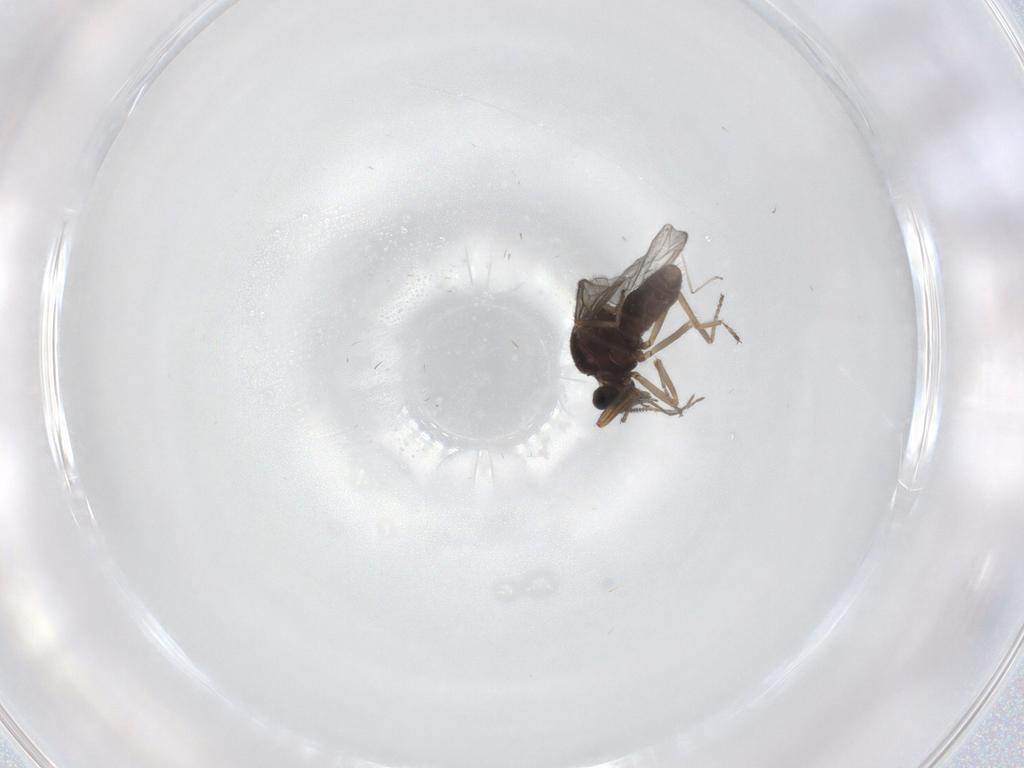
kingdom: Animalia
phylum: Arthropoda
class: Insecta
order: Diptera
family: Ceratopogonidae
